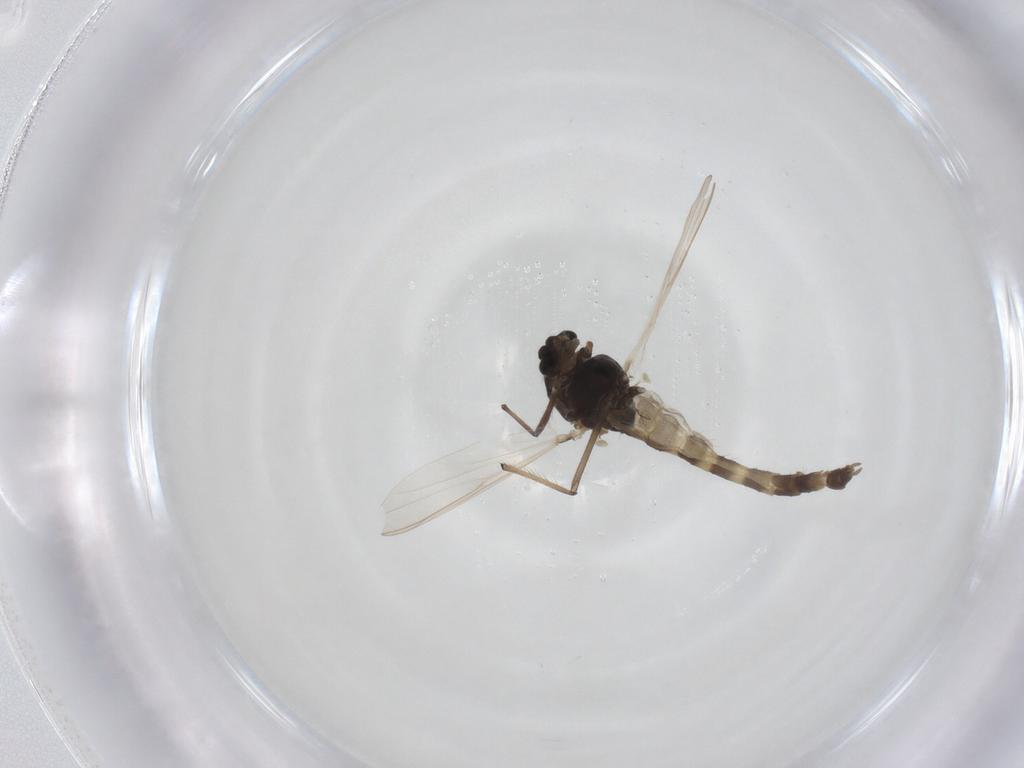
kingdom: Animalia
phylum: Arthropoda
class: Insecta
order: Diptera
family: Chironomidae
